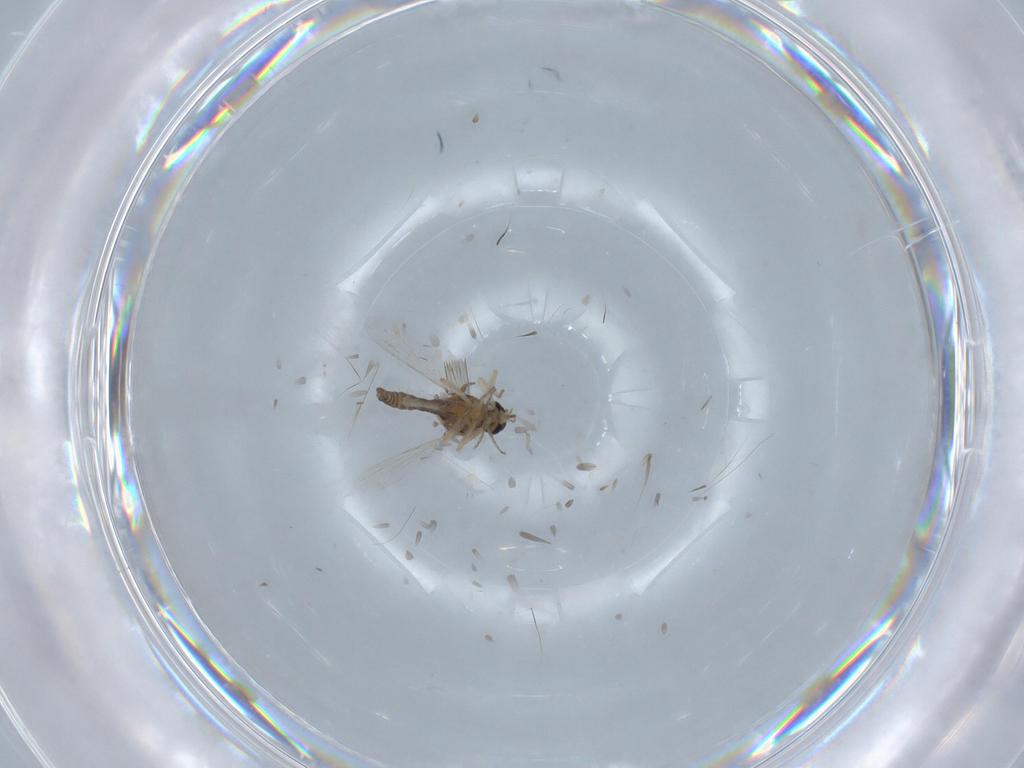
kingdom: Animalia
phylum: Arthropoda
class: Insecta
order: Diptera
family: Ceratopogonidae
